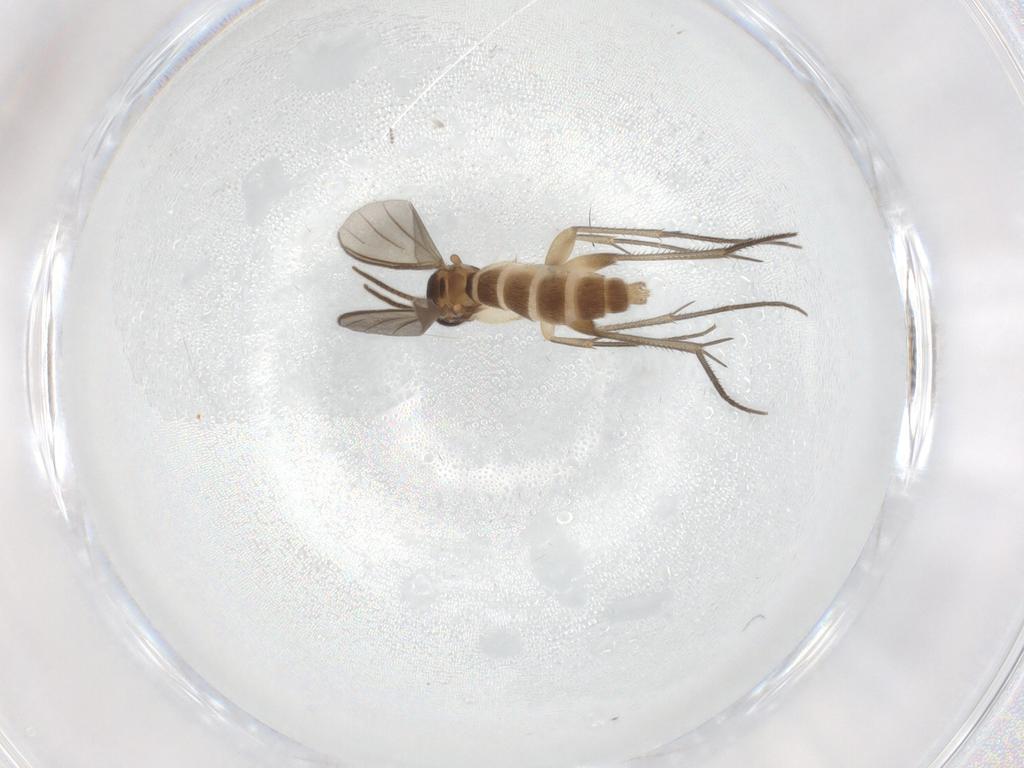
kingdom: Animalia
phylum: Arthropoda
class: Insecta
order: Diptera
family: Mycetophilidae
